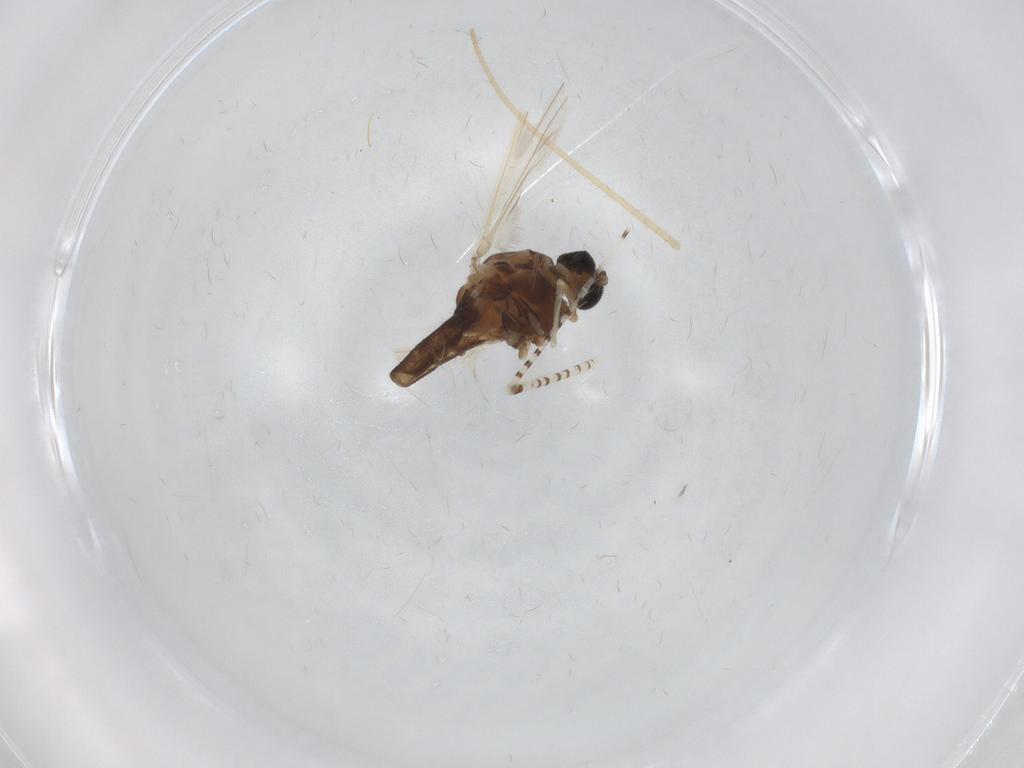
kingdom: Animalia
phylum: Arthropoda
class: Insecta
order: Diptera
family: Chironomidae
